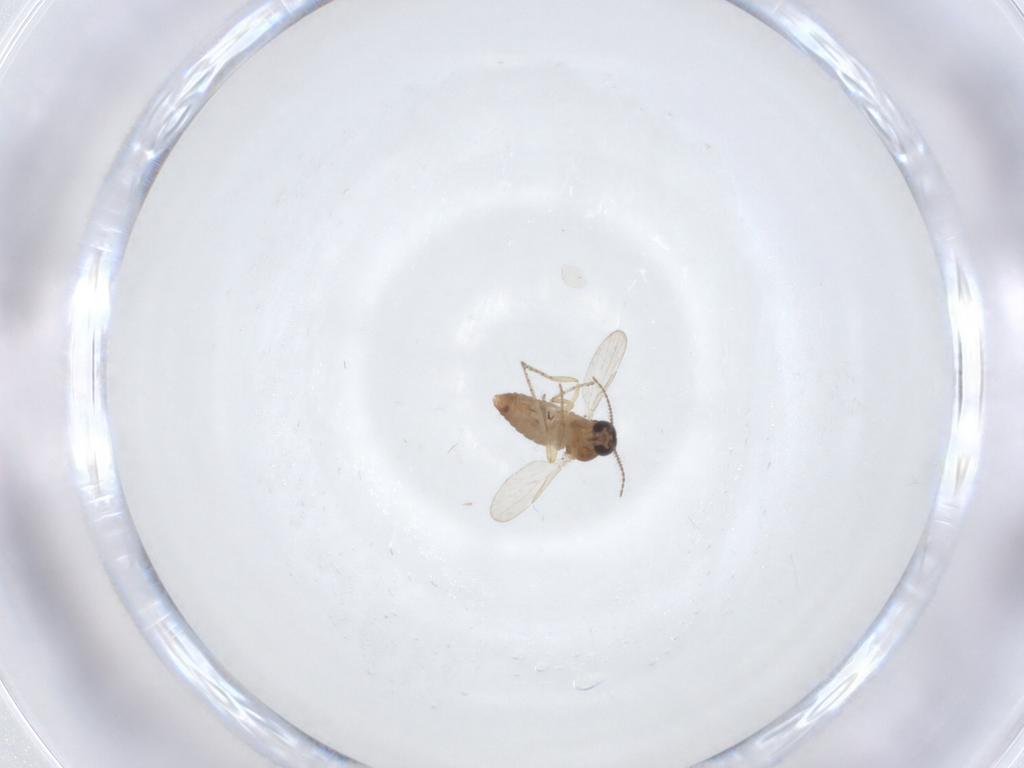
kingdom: Animalia
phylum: Arthropoda
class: Insecta
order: Diptera
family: Ceratopogonidae
